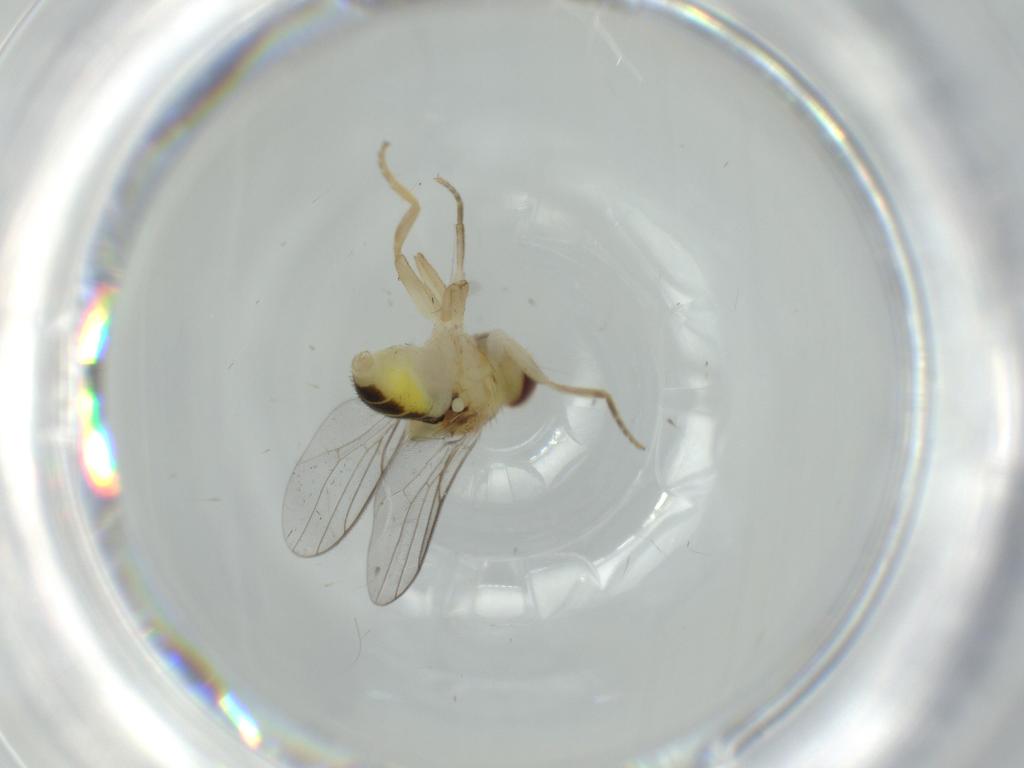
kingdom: Animalia
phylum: Arthropoda
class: Insecta
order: Diptera
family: Chloropidae
